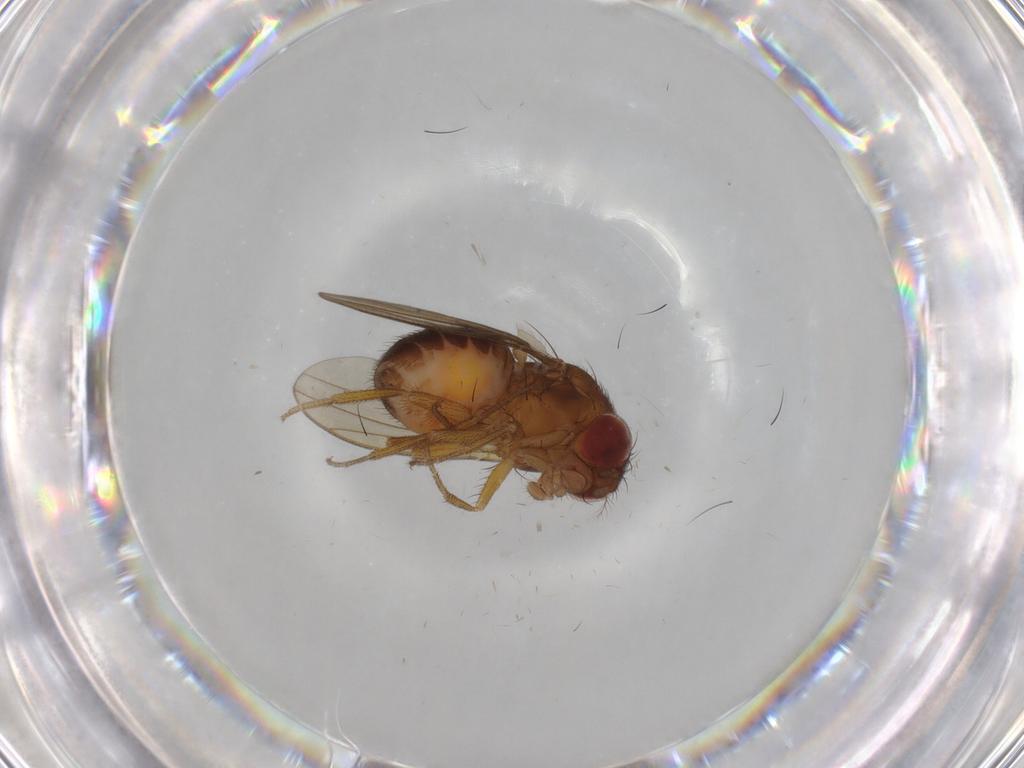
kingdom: Animalia
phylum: Arthropoda
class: Insecta
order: Diptera
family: Drosophilidae
